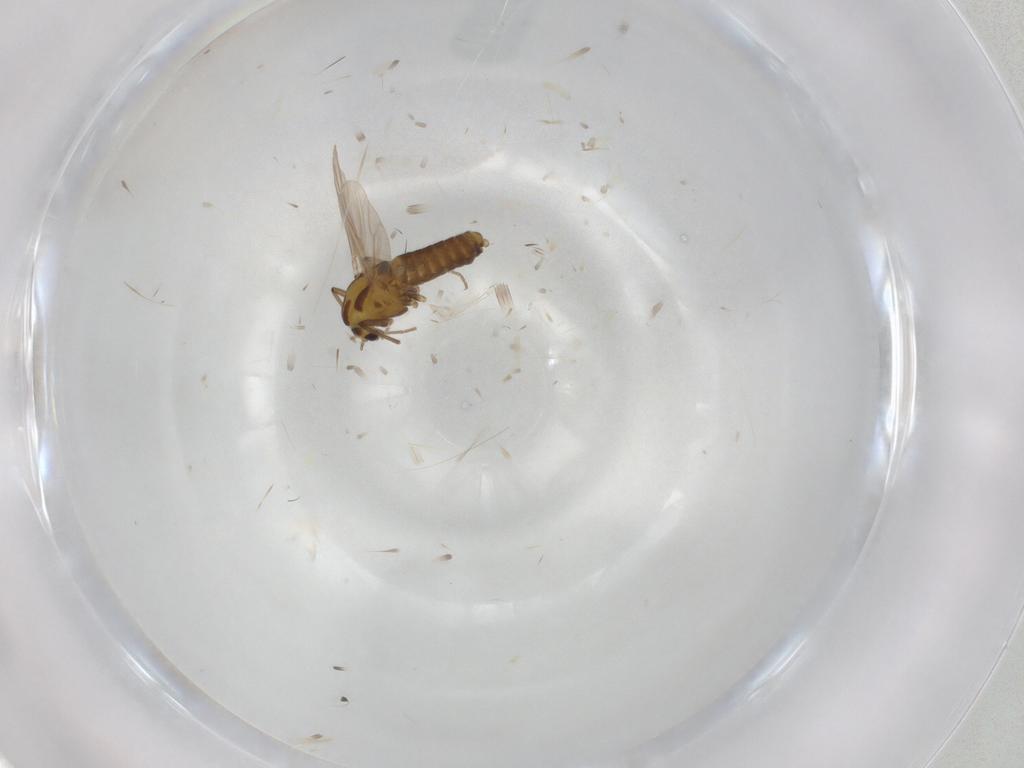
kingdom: Animalia
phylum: Arthropoda
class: Insecta
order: Diptera
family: Chironomidae
